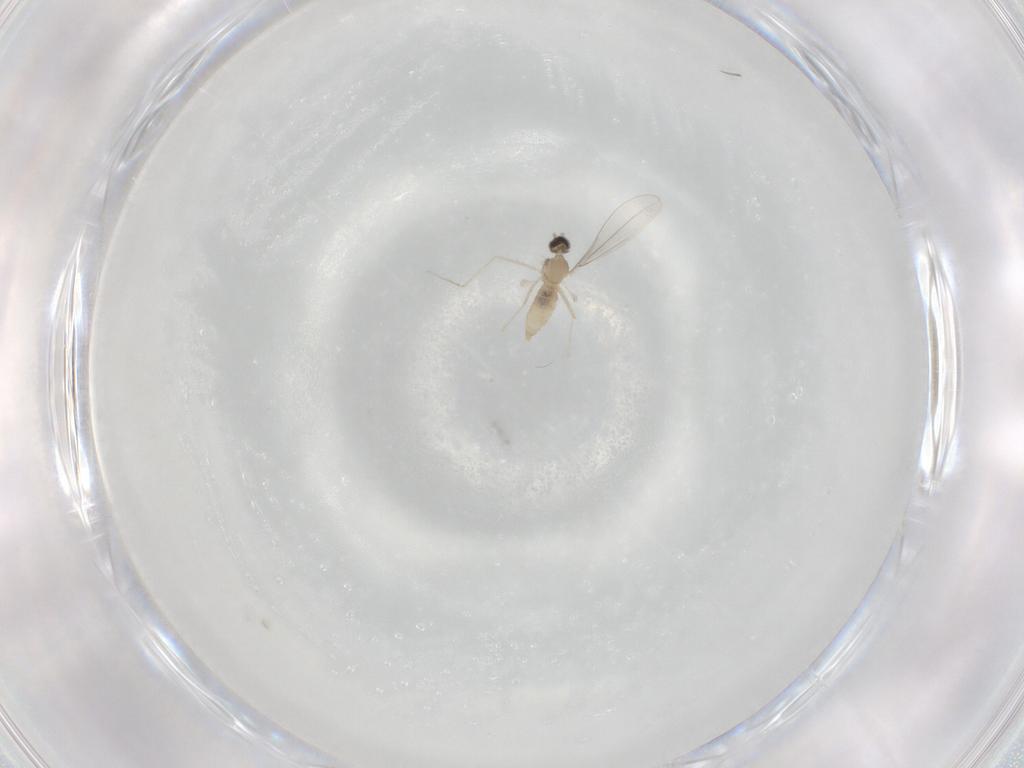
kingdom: Animalia
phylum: Arthropoda
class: Insecta
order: Diptera
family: Cecidomyiidae
